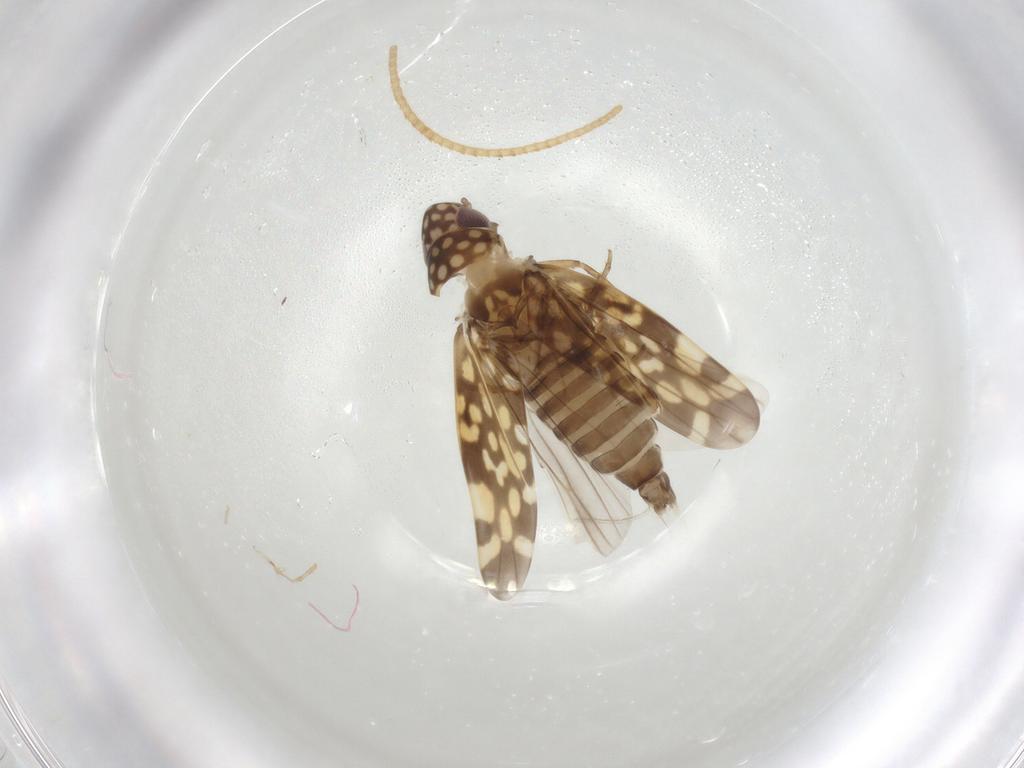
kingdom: Animalia
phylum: Arthropoda
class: Insecta
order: Hemiptera
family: Cicadellidae
